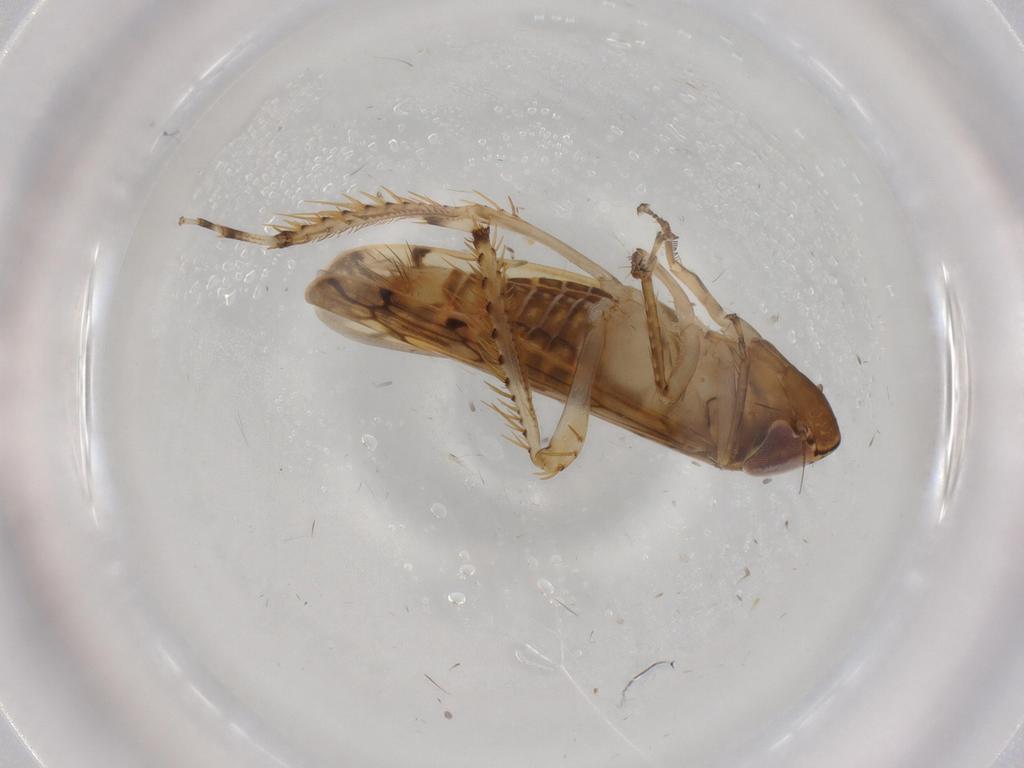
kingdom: Animalia
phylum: Arthropoda
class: Insecta
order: Hemiptera
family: Cicadellidae
